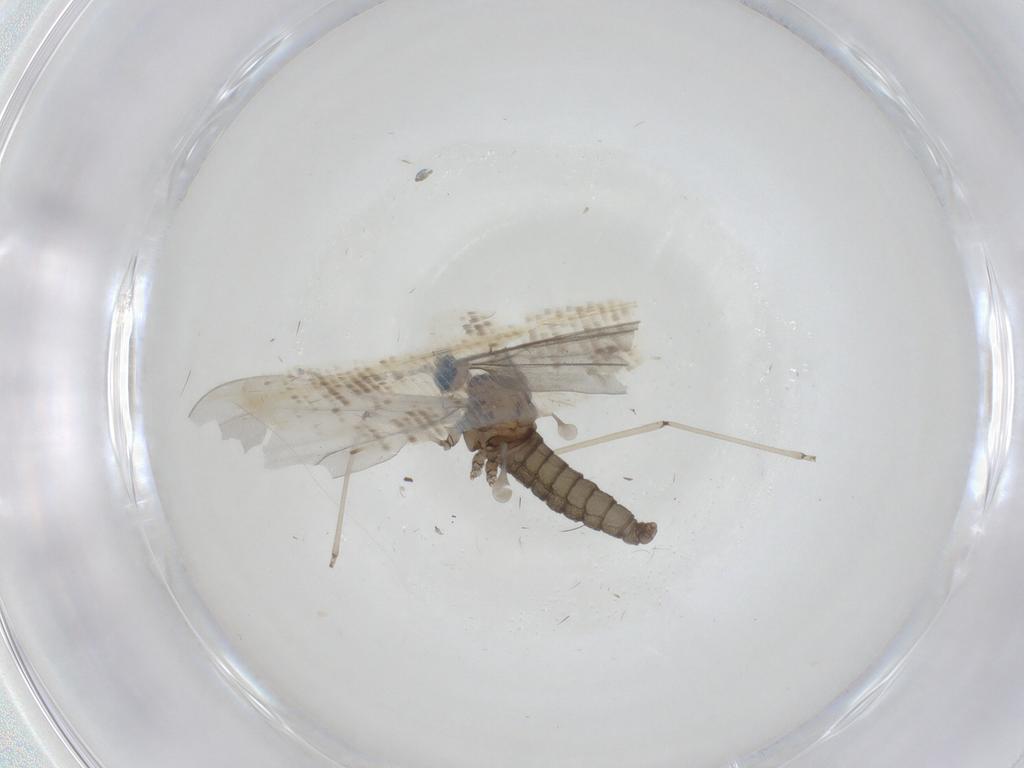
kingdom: Animalia
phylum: Arthropoda
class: Insecta
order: Diptera
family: Cecidomyiidae
